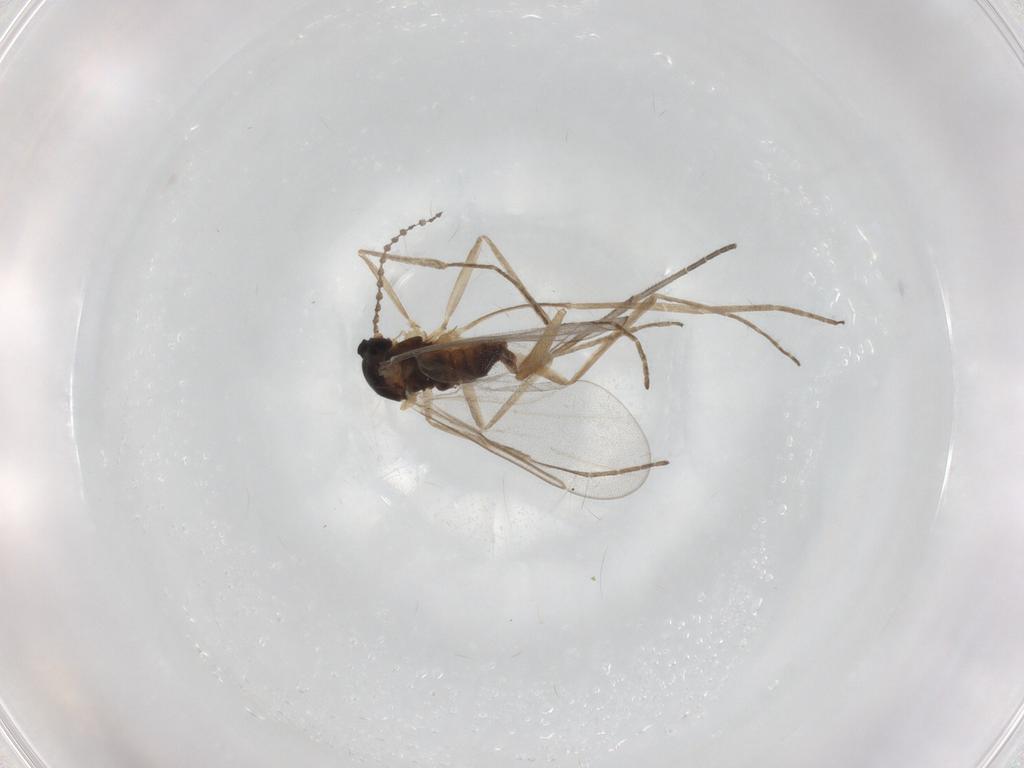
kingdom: Animalia
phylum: Arthropoda
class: Insecta
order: Diptera
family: Cecidomyiidae
